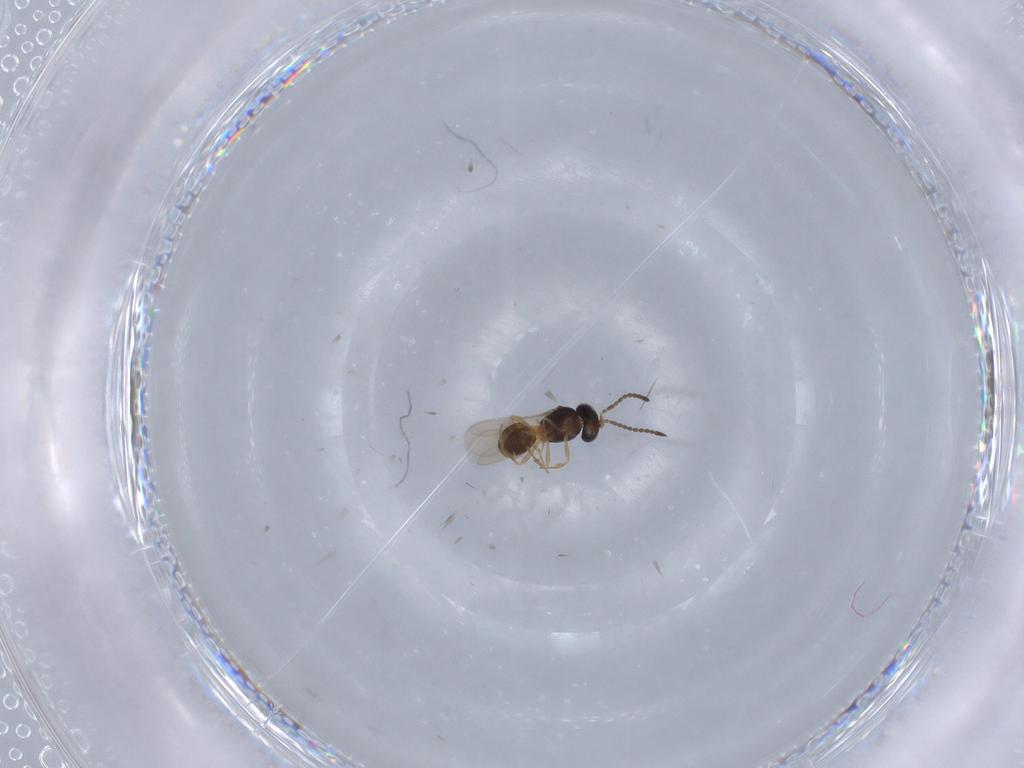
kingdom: Animalia
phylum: Arthropoda
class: Insecta
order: Hymenoptera
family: Scelionidae
